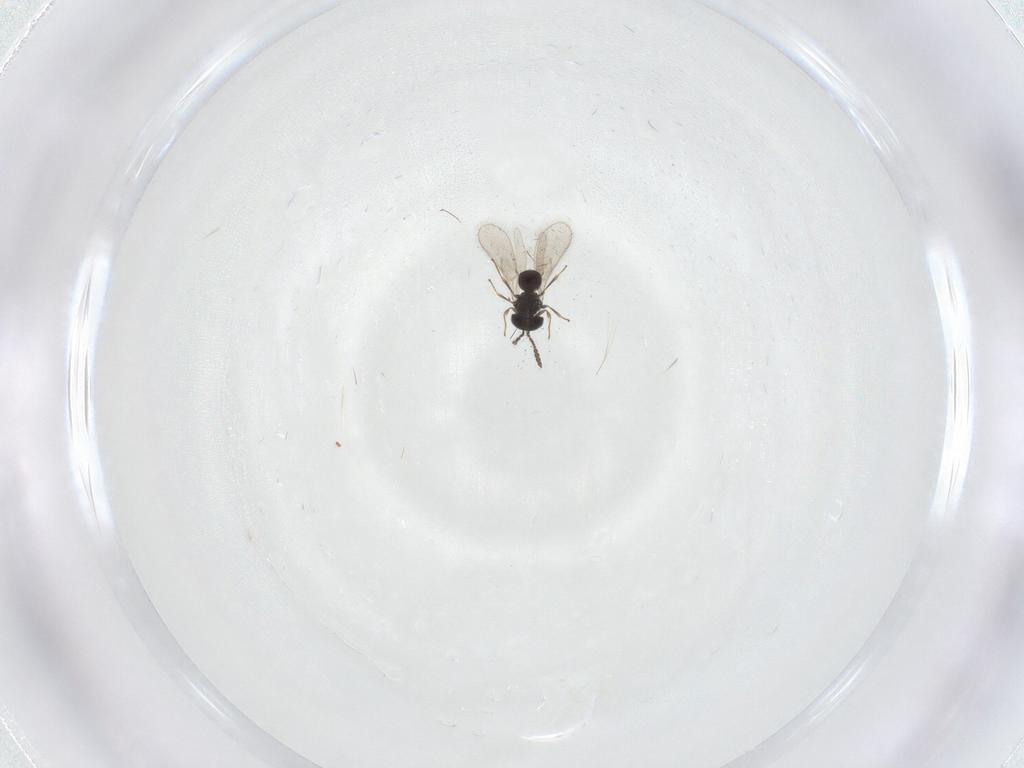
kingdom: Animalia
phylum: Arthropoda
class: Insecta
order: Hymenoptera
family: Scelionidae
